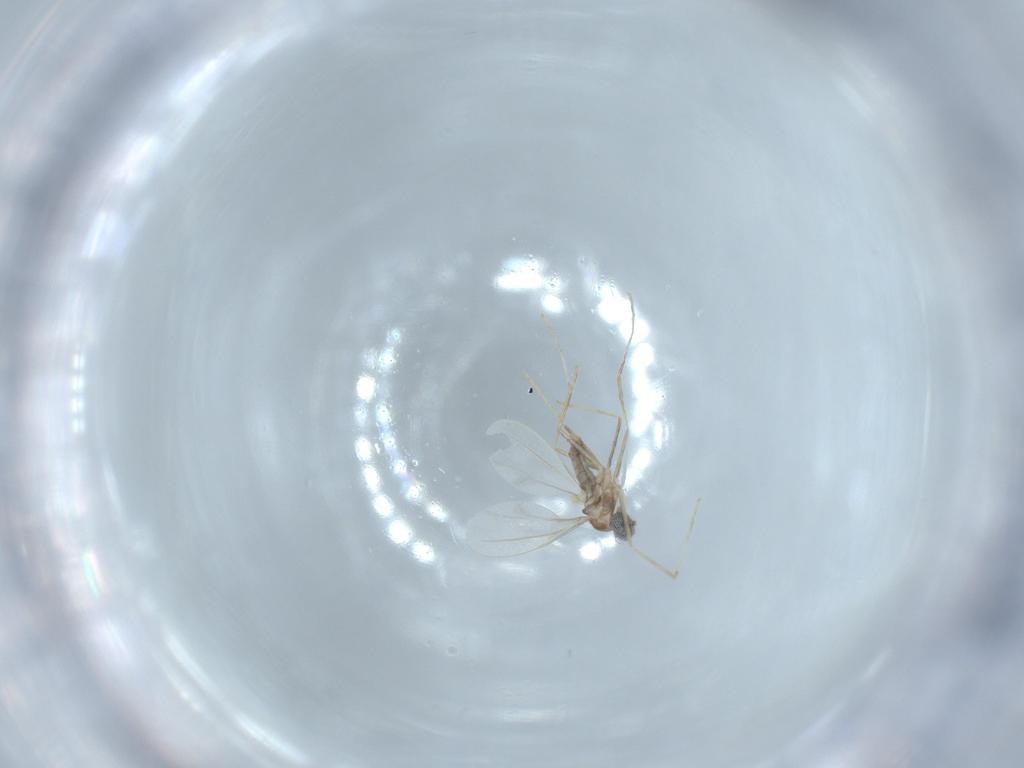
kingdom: Animalia
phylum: Arthropoda
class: Insecta
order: Diptera
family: Cecidomyiidae
